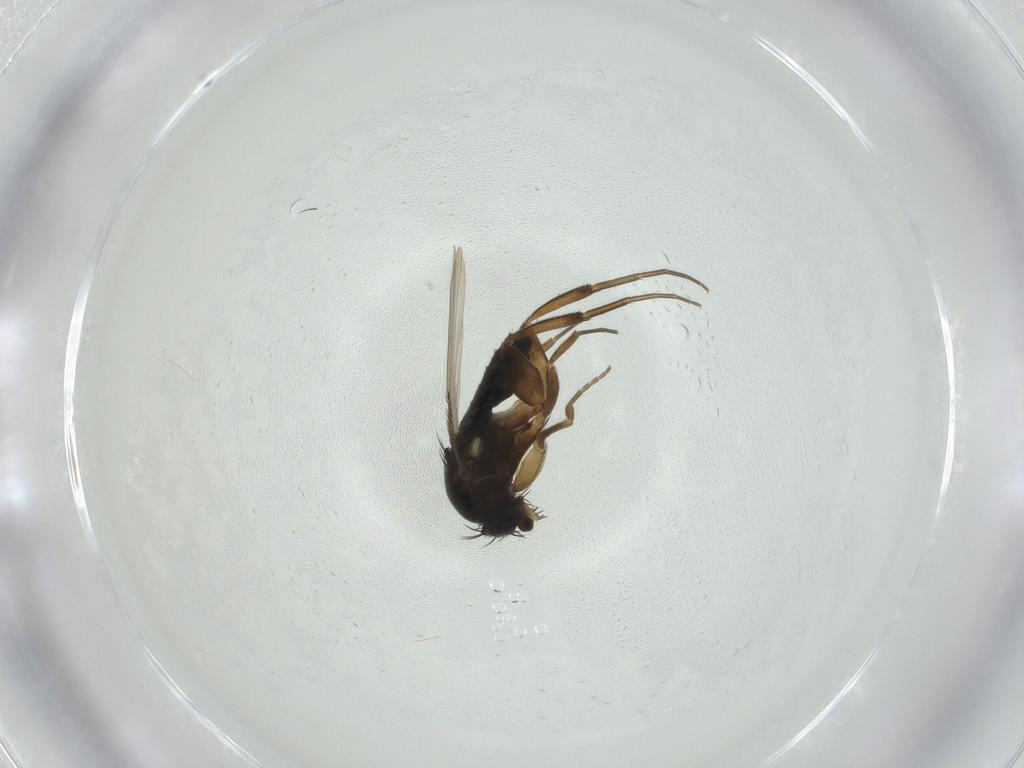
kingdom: Animalia
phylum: Arthropoda
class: Insecta
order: Diptera
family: Phoridae
